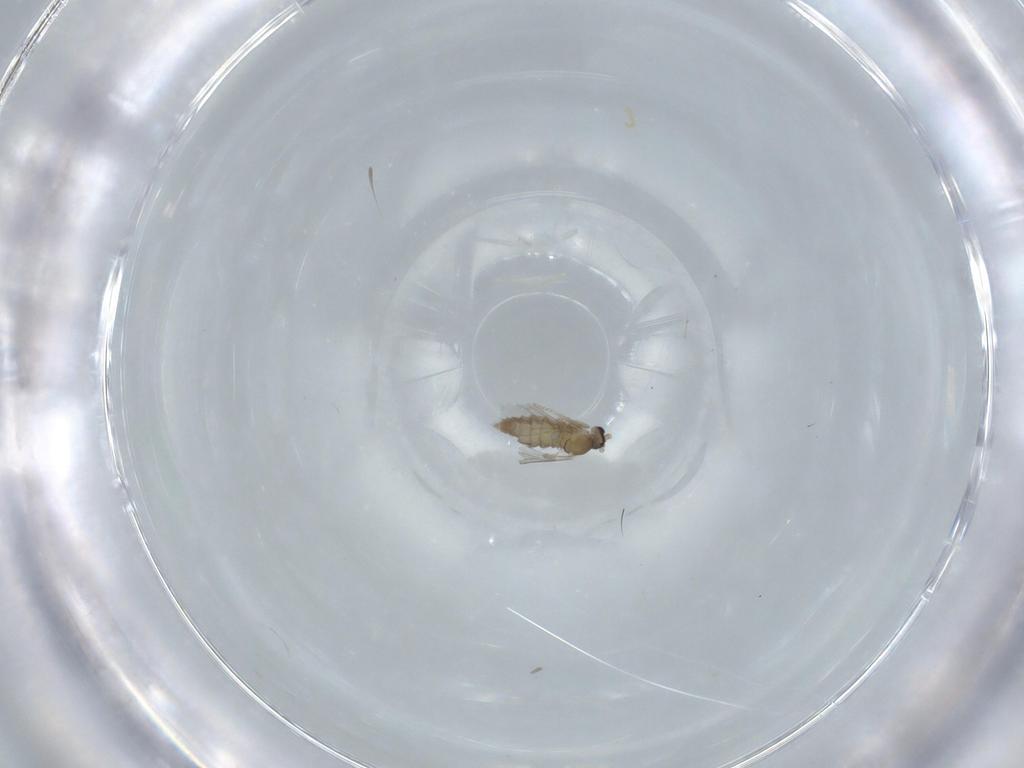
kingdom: Animalia
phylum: Arthropoda
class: Insecta
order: Diptera
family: Cecidomyiidae
